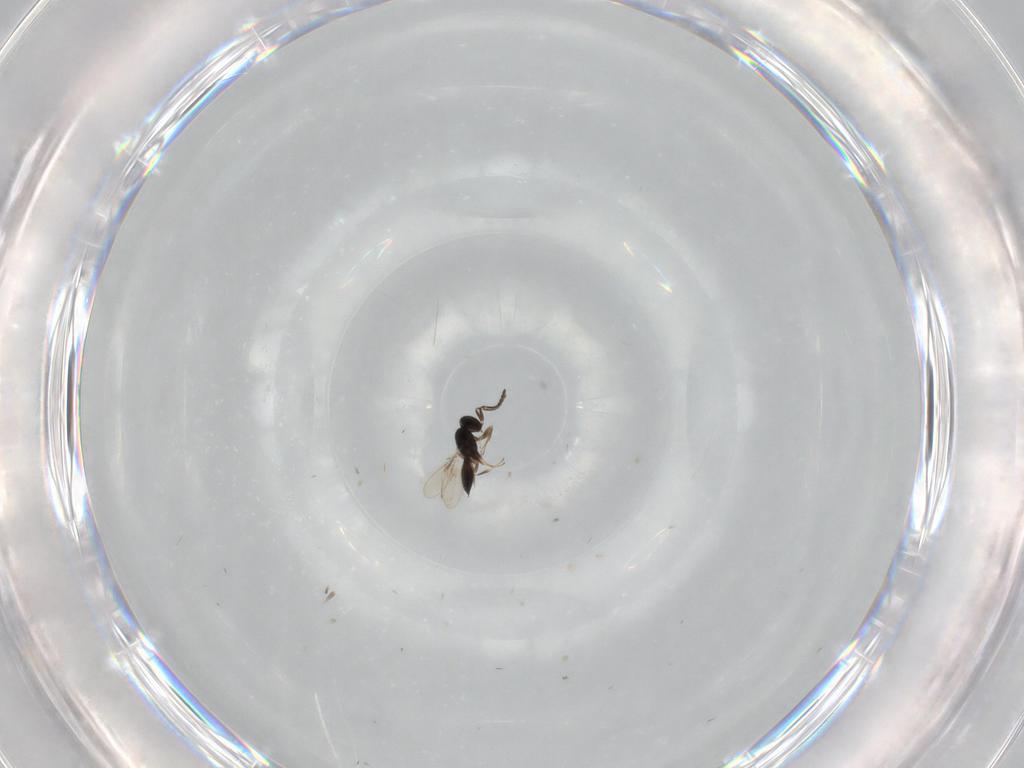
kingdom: Animalia
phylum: Arthropoda
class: Insecta
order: Hymenoptera
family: Scelionidae
